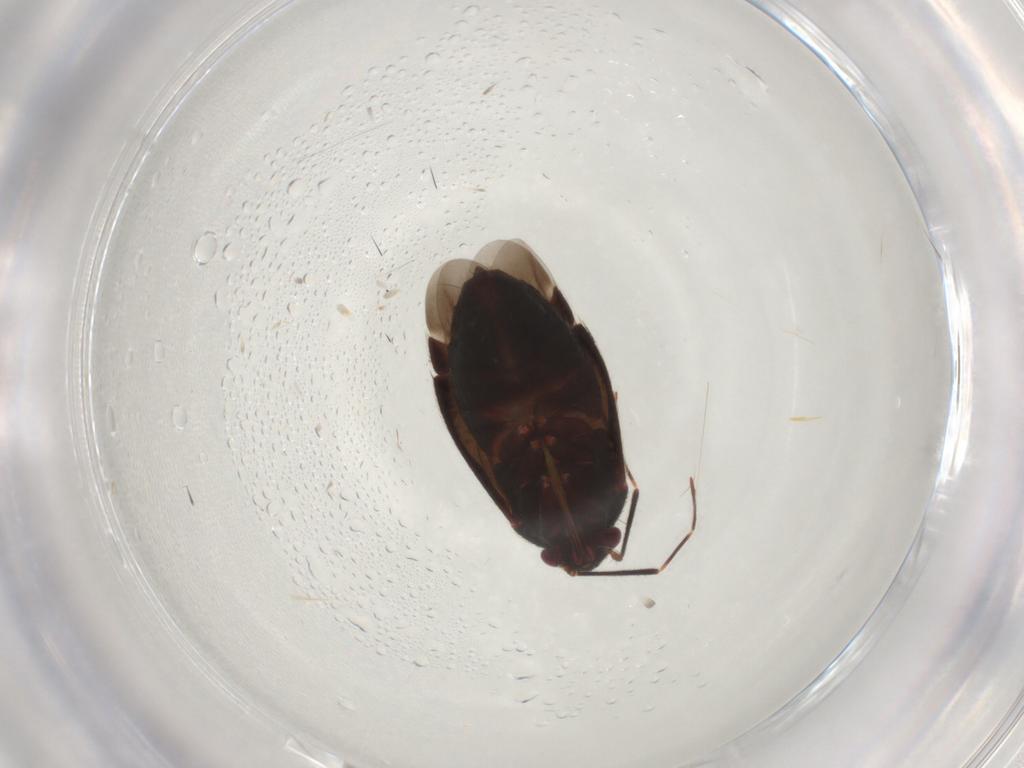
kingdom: Animalia
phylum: Arthropoda
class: Insecta
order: Hemiptera
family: Miridae
